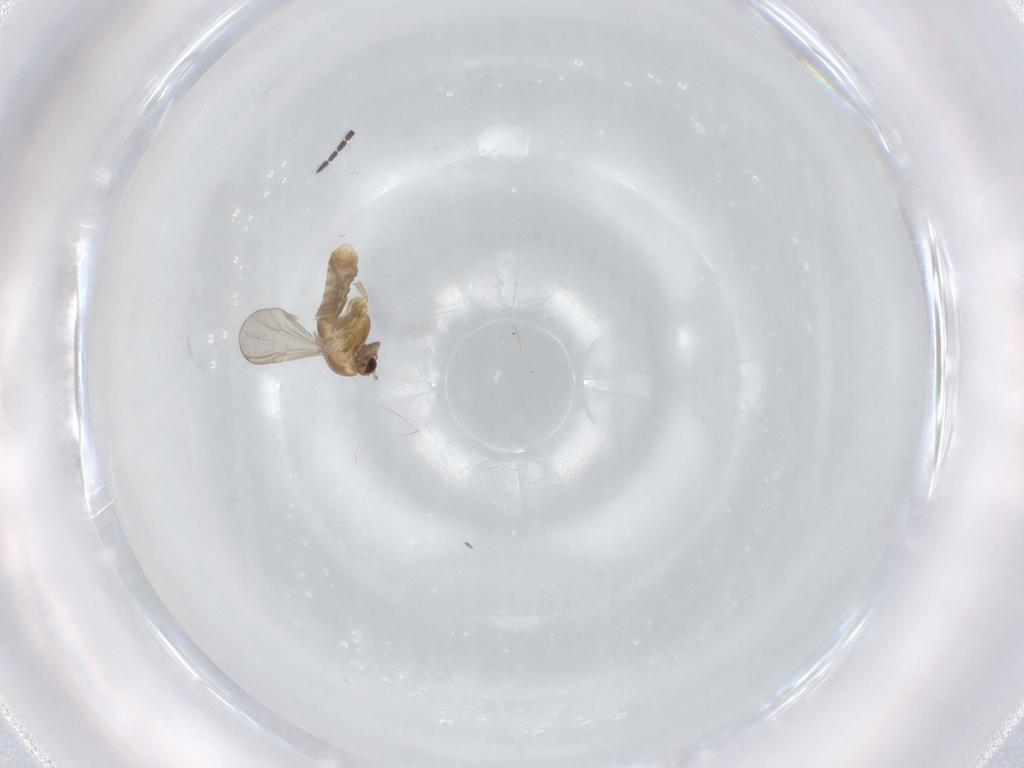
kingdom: Animalia
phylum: Arthropoda
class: Insecta
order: Diptera
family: Chironomidae
